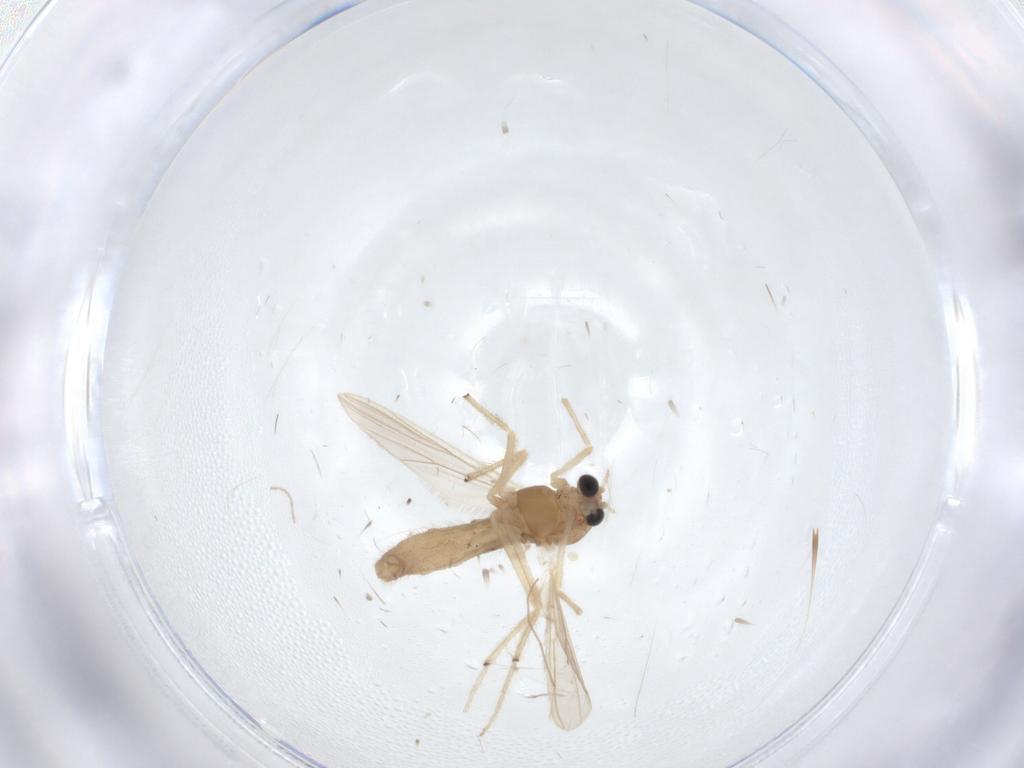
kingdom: Animalia
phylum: Arthropoda
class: Insecta
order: Diptera
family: Chironomidae
